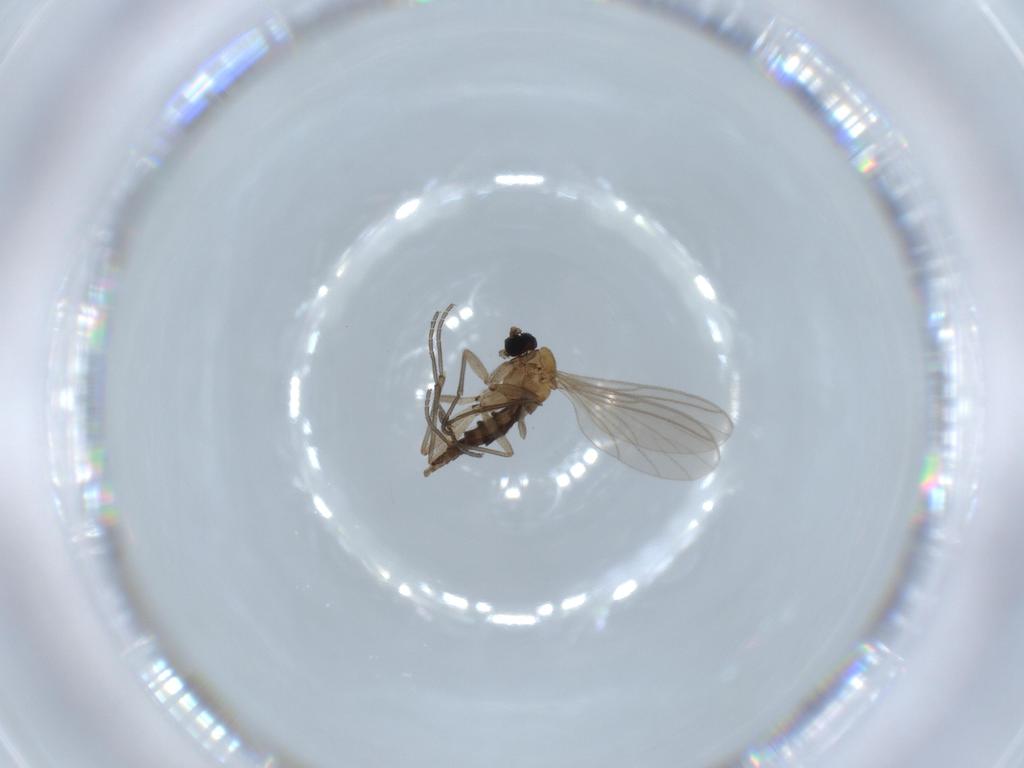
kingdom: Animalia
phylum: Arthropoda
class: Insecta
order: Diptera
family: Sciaridae
